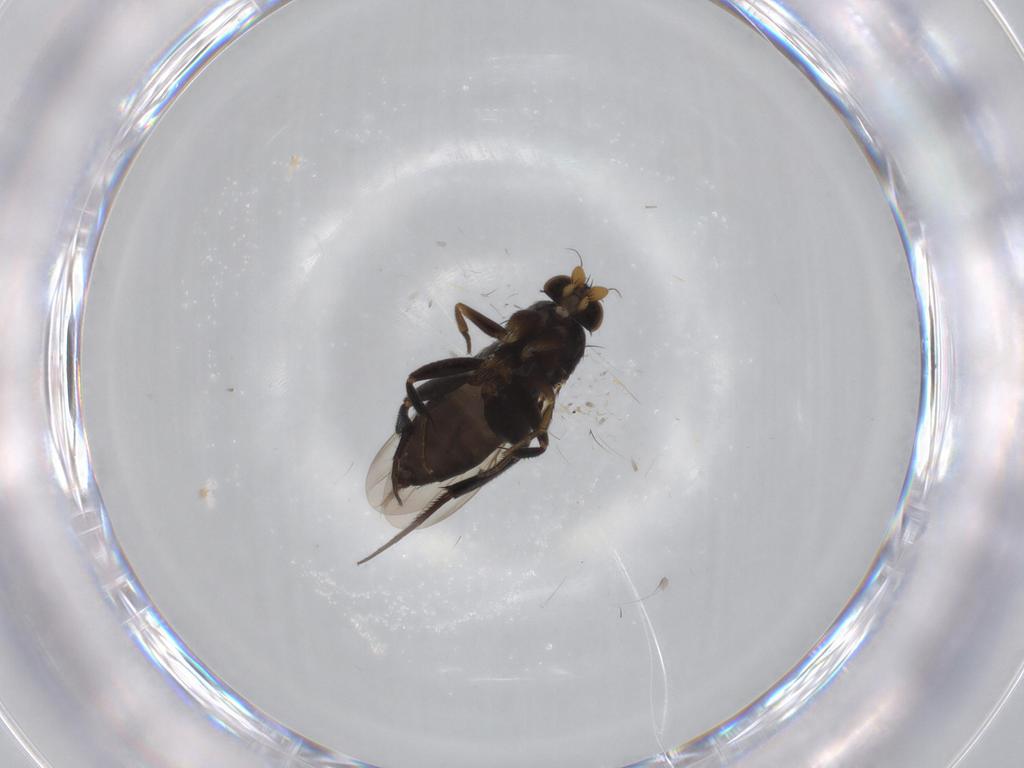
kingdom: Animalia
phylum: Arthropoda
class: Insecta
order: Diptera
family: Phoridae
